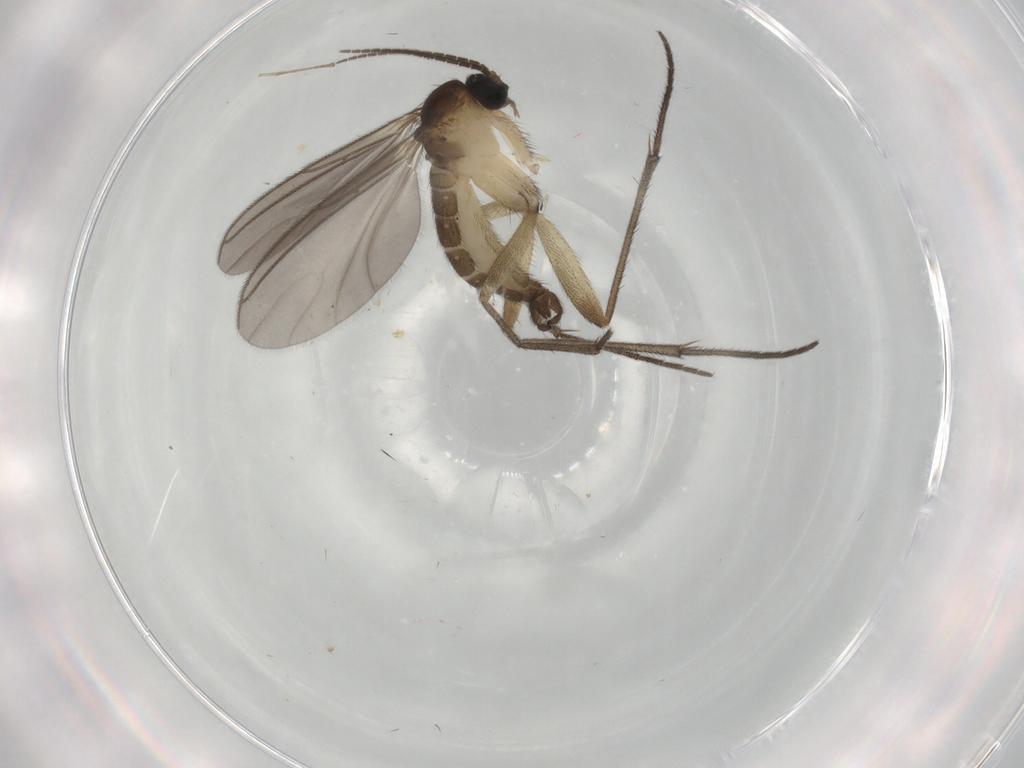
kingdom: Animalia
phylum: Arthropoda
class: Insecta
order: Diptera
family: Sciaridae
